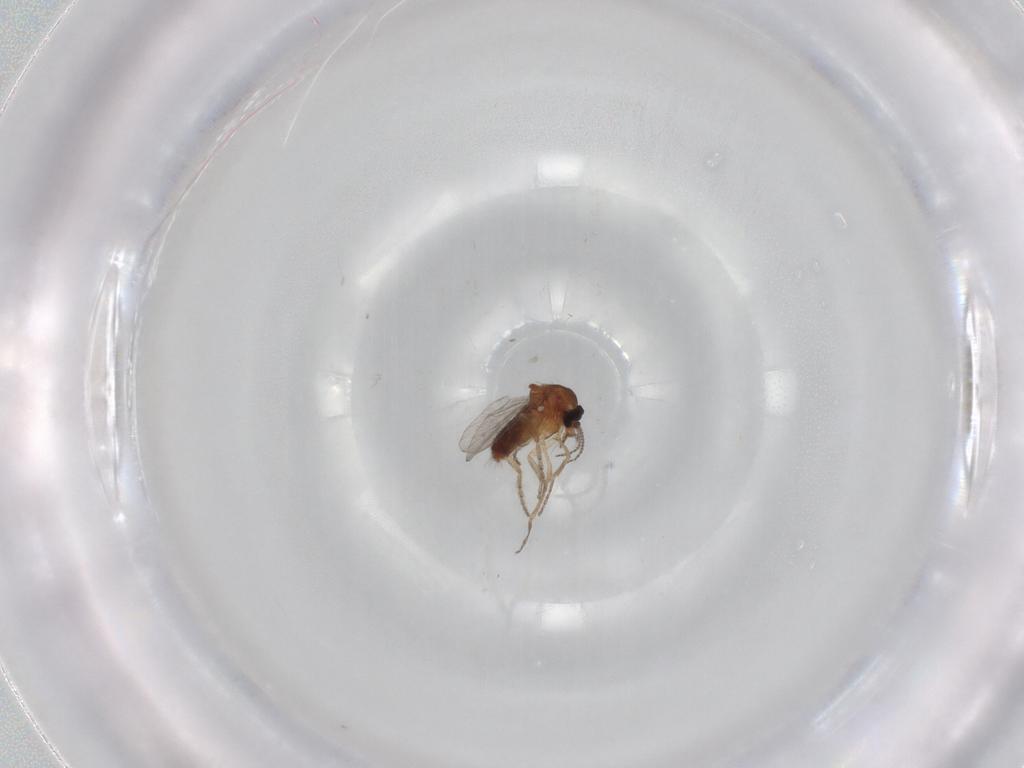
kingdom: Animalia
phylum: Arthropoda
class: Insecta
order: Diptera
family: Ceratopogonidae
